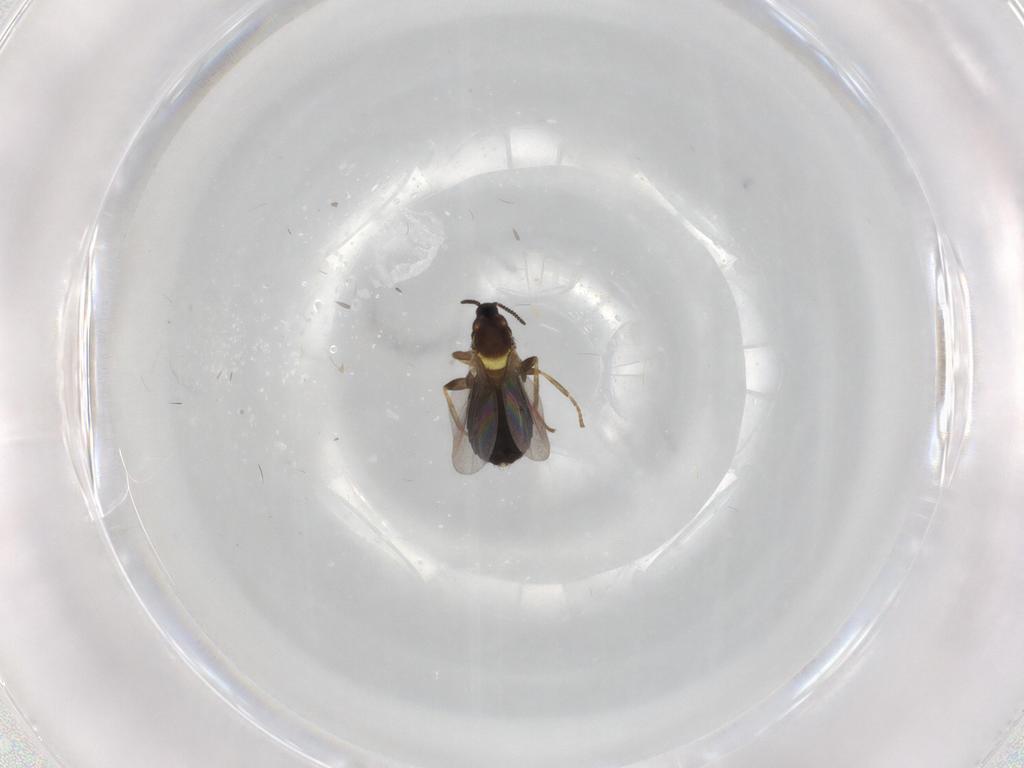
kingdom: Animalia
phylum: Arthropoda
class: Insecta
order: Diptera
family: Scatopsidae
